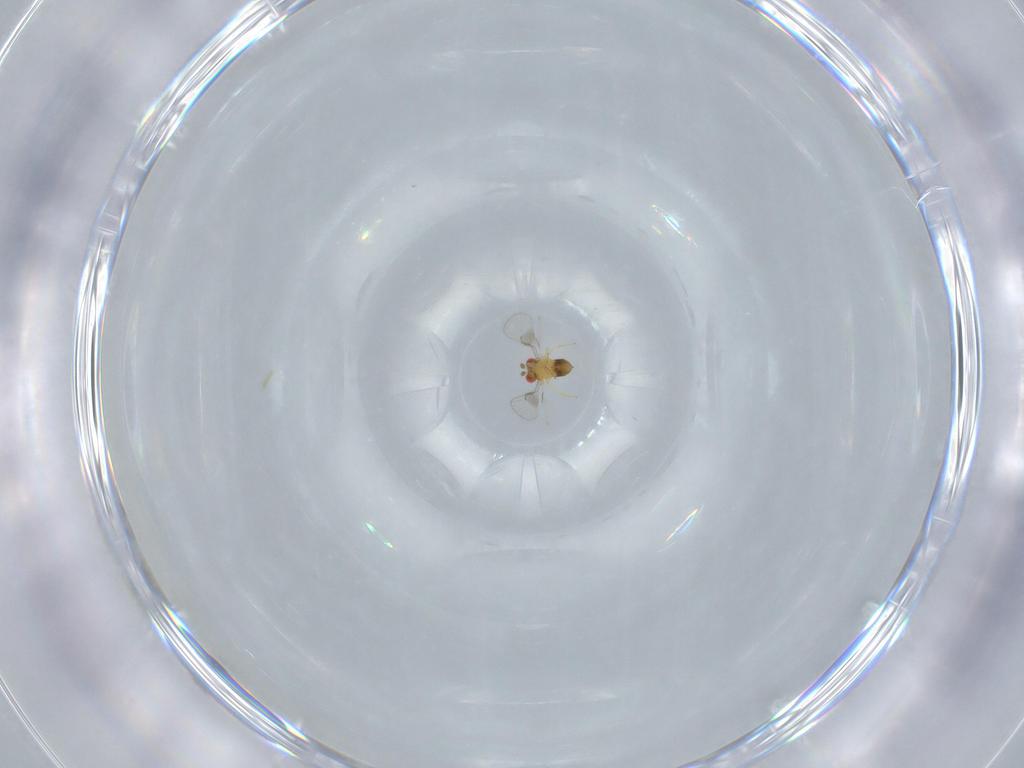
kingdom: Animalia
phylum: Arthropoda
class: Insecta
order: Hymenoptera
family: Trichogrammatidae
